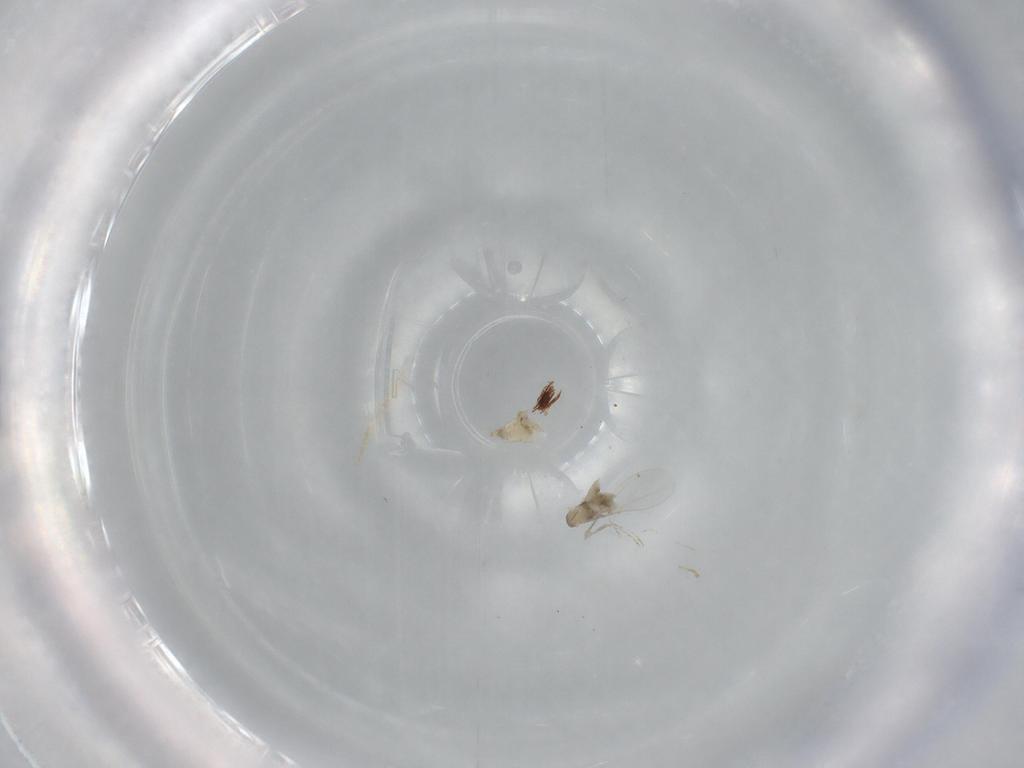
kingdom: Animalia
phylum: Arthropoda
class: Insecta
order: Diptera
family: Cecidomyiidae
